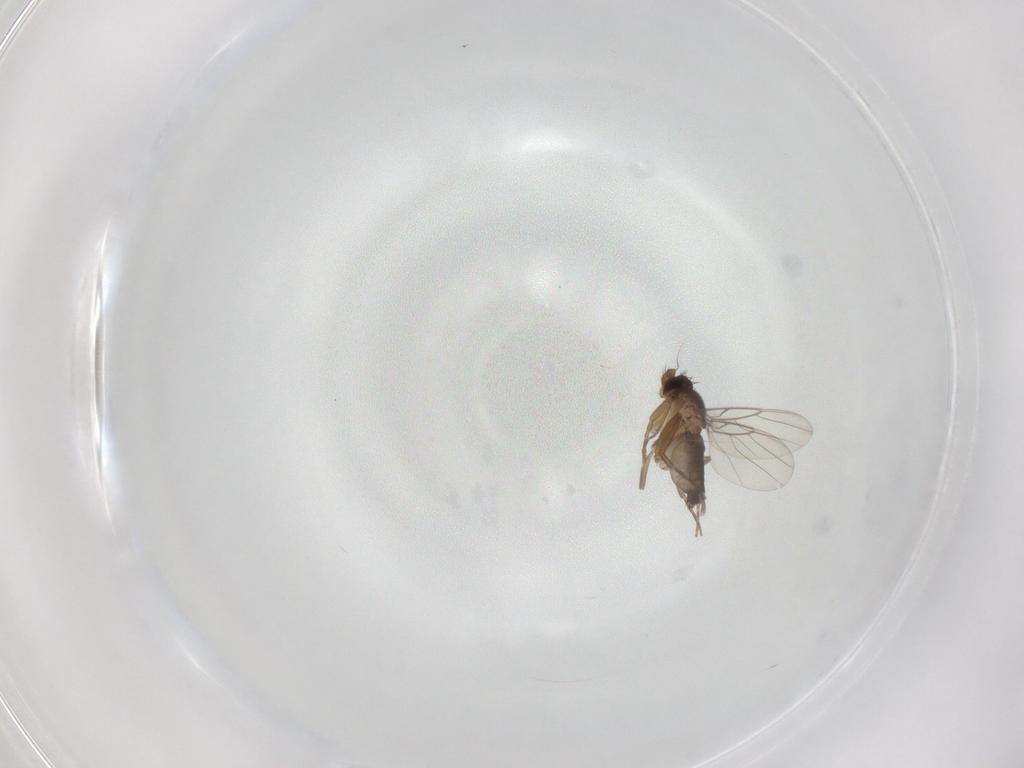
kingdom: Animalia
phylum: Arthropoda
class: Insecta
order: Diptera
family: Phoridae
